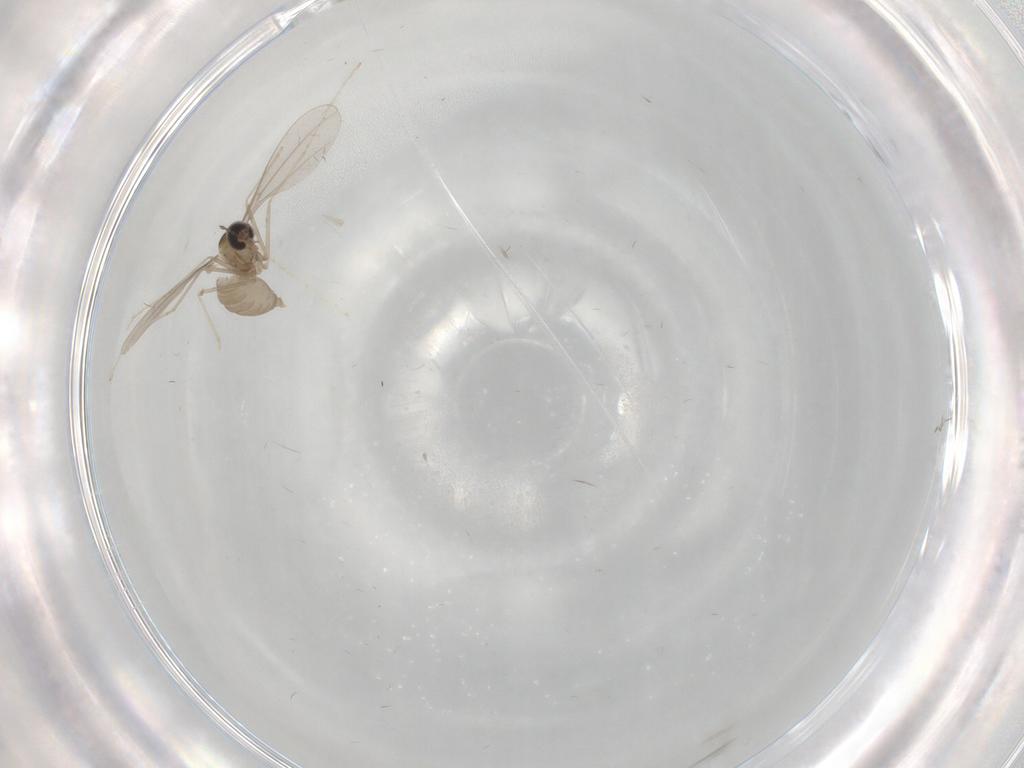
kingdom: Animalia
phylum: Arthropoda
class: Insecta
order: Diptera
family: Cecidomyiidae
